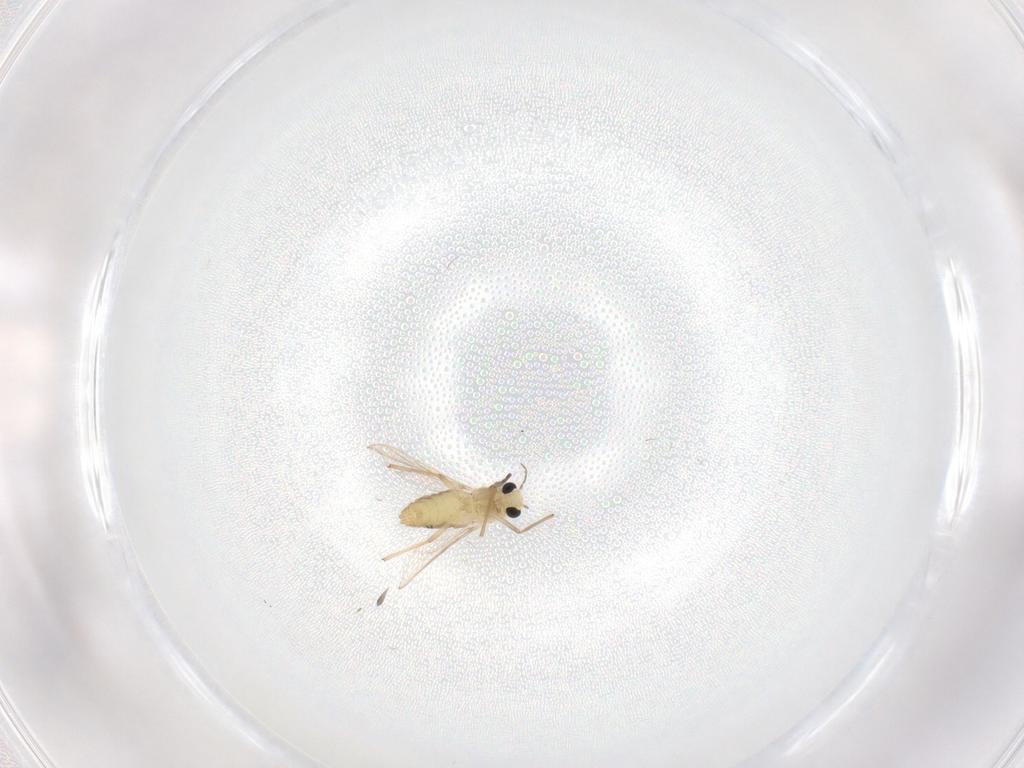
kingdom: Animalia
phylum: Arthropoda
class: Insecta
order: Diptera
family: Chironomidae
